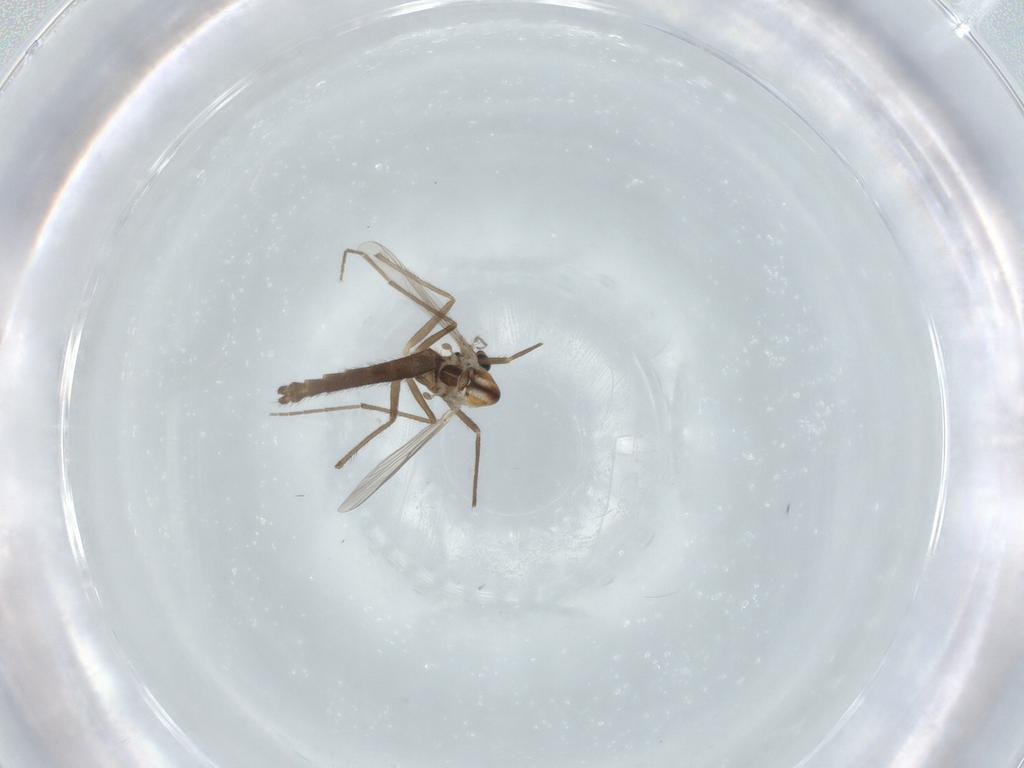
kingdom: Animalia
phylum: Arthropoda
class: Insecta
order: Diptera
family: Chironomidae
